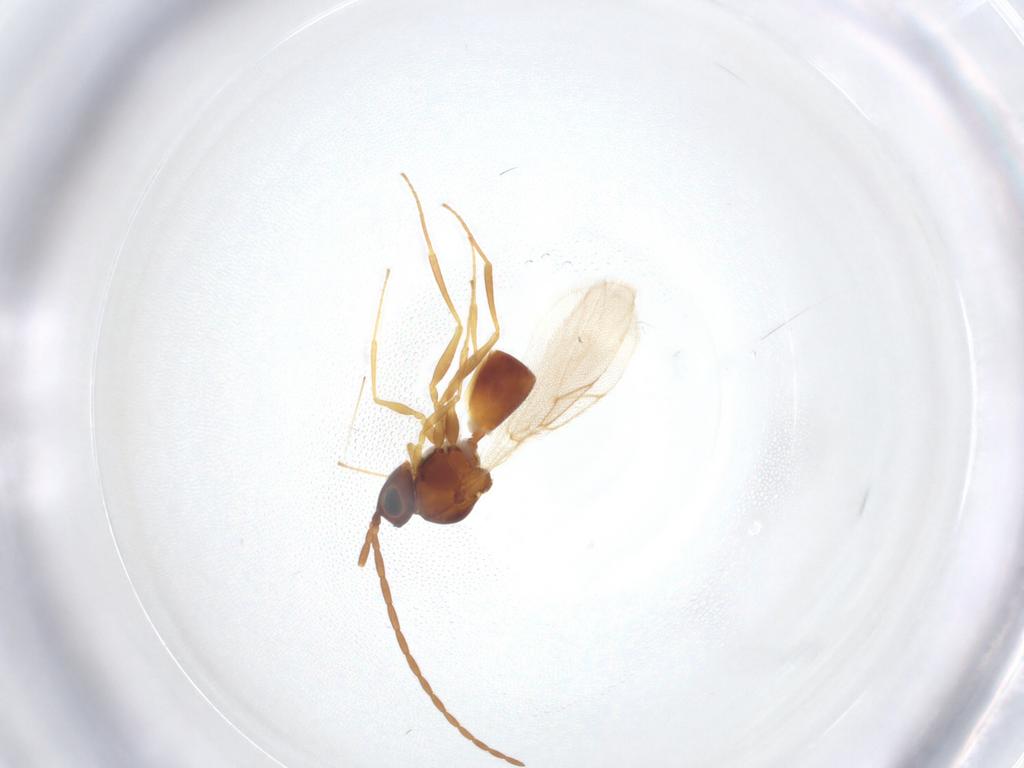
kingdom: Animalia
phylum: Arthropoda
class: Insecta
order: Hymenoptera
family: Figitidae
